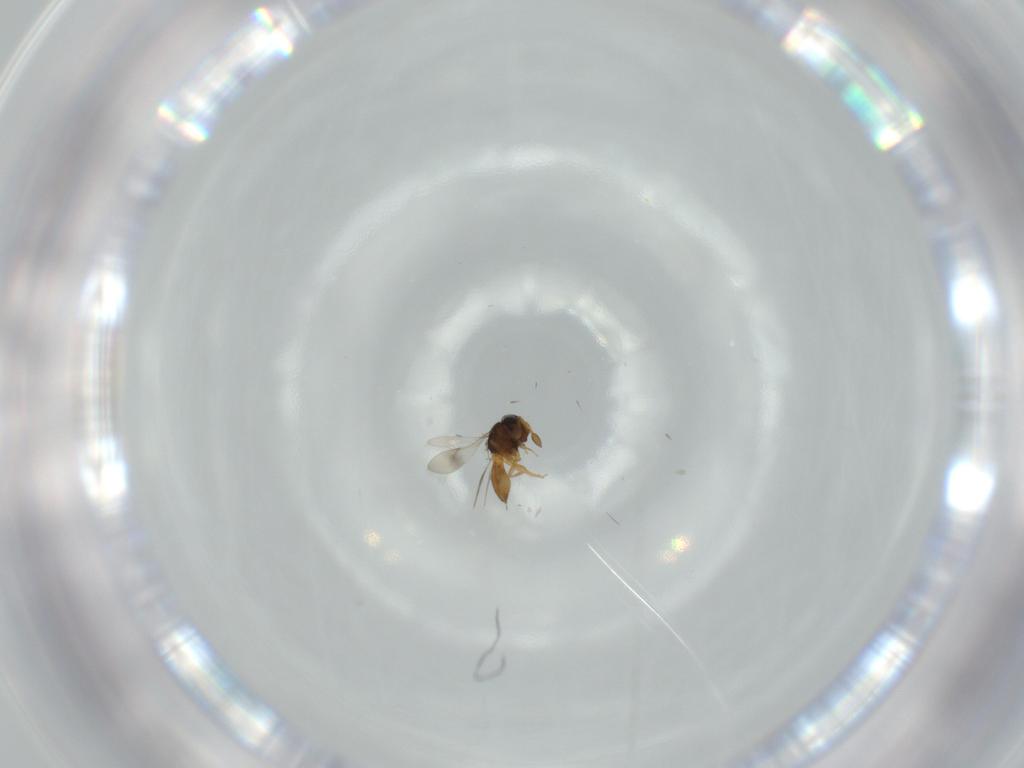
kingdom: Animalia
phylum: Arthropoda
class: Insecta
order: Hymenoptera
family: Scelionidae
